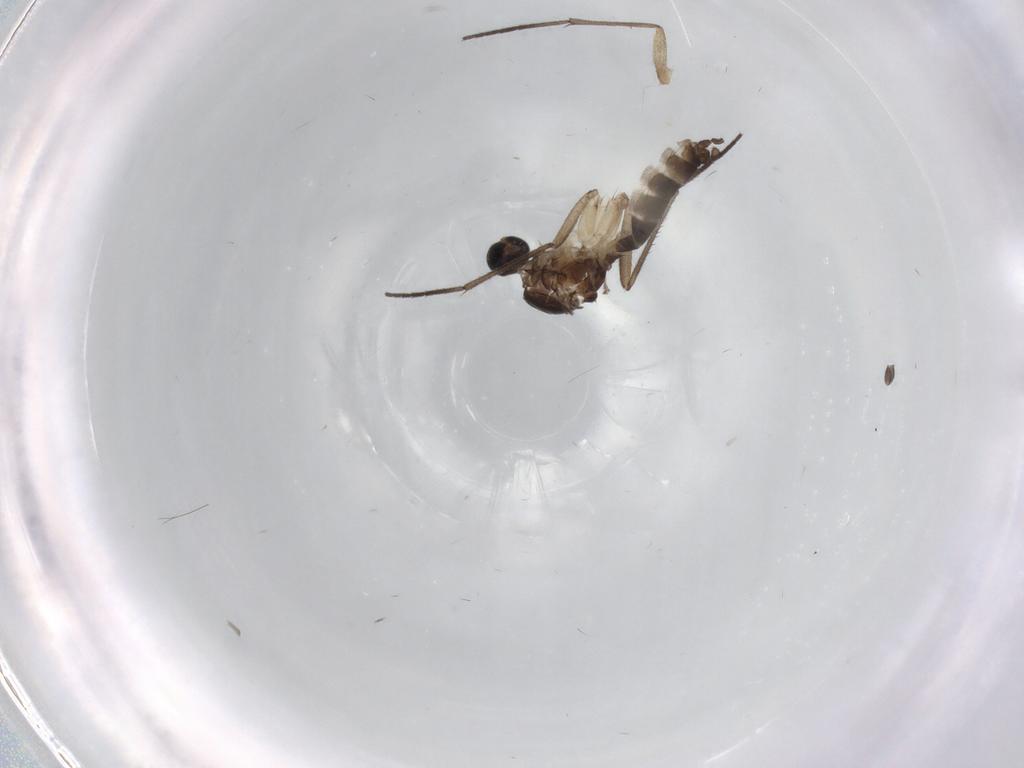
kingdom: Animalia
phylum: Arthropoda
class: Insecta
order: Diptera
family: Ceratopogonidae
